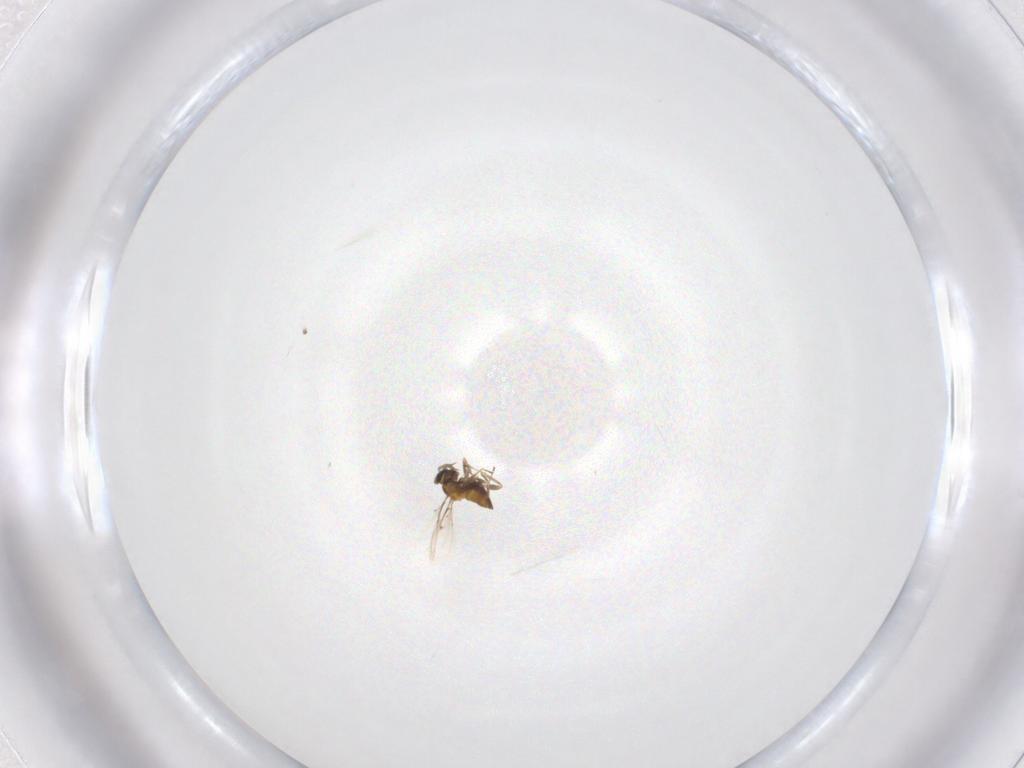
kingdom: Animalia
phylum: Arthropoda
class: Insecta
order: Hymenoptera
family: Trichogrammatidae
